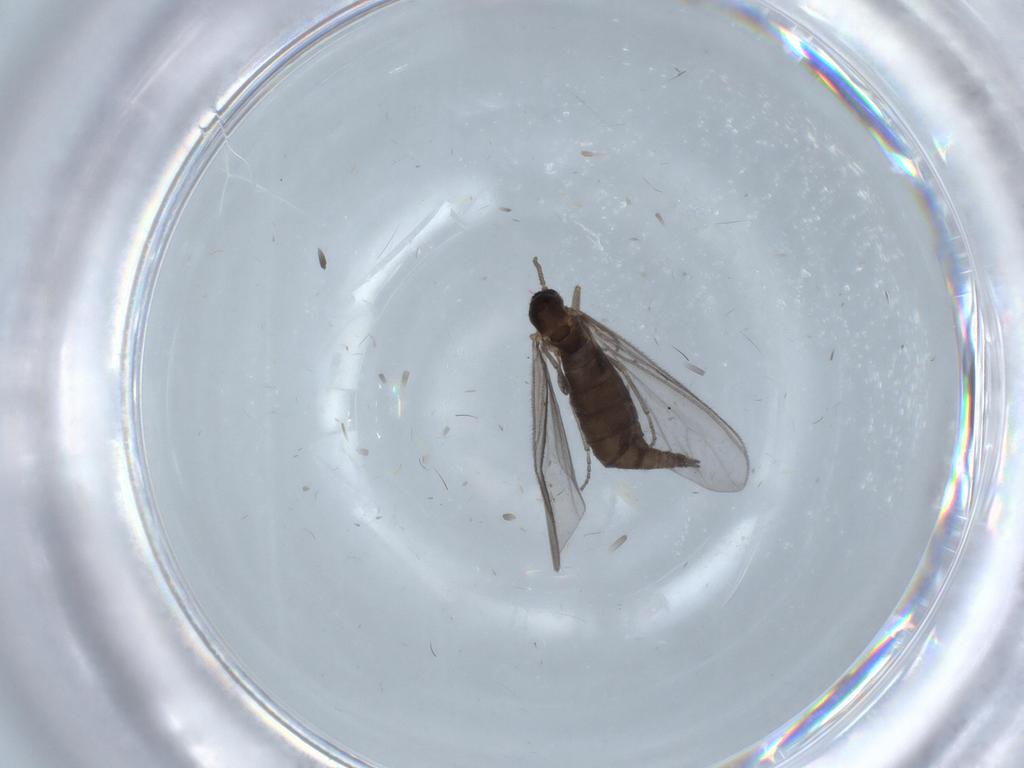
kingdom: Animalia
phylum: Arthropoda
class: Insecta
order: Diptera
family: Sciaridae
